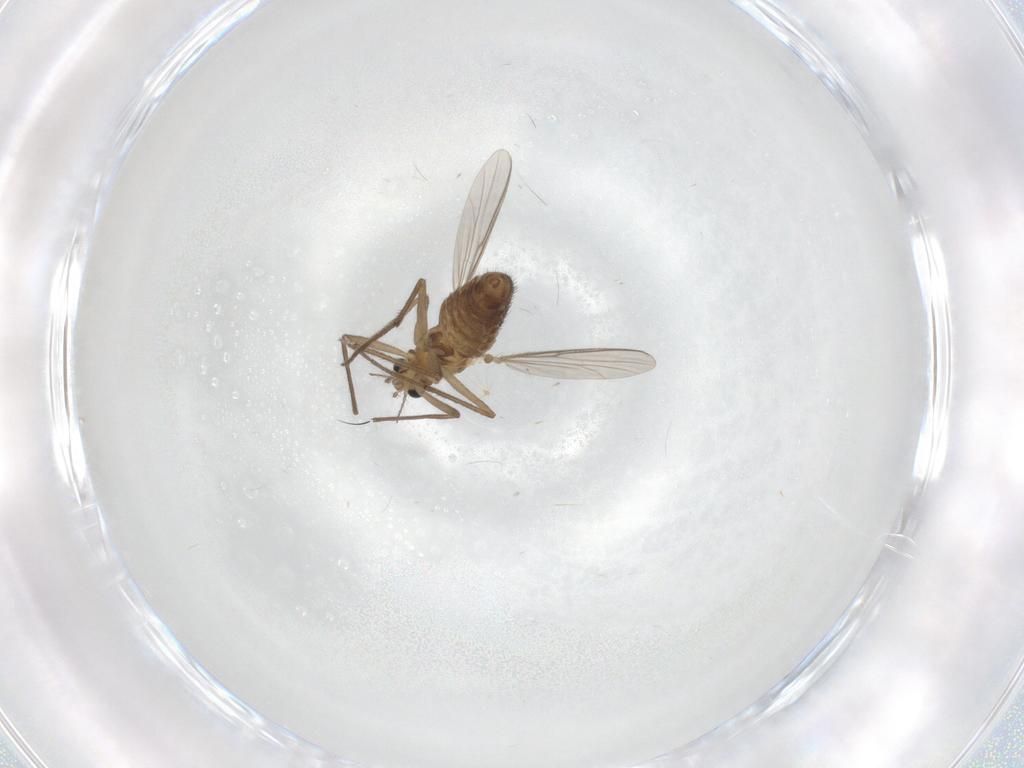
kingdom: Animalia
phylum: Arthropoda
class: Insecta
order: Diptera
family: Chironomidae
